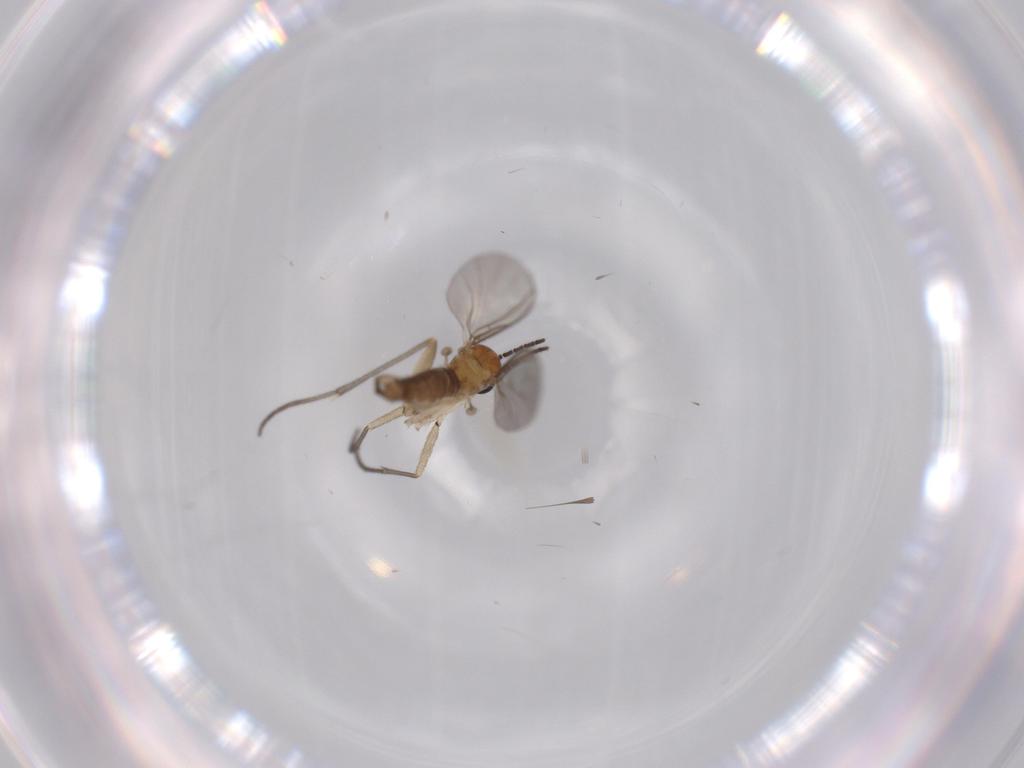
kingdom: Animalia
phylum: Arthropoda
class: Insecta
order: Diptera
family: Sciaridae
